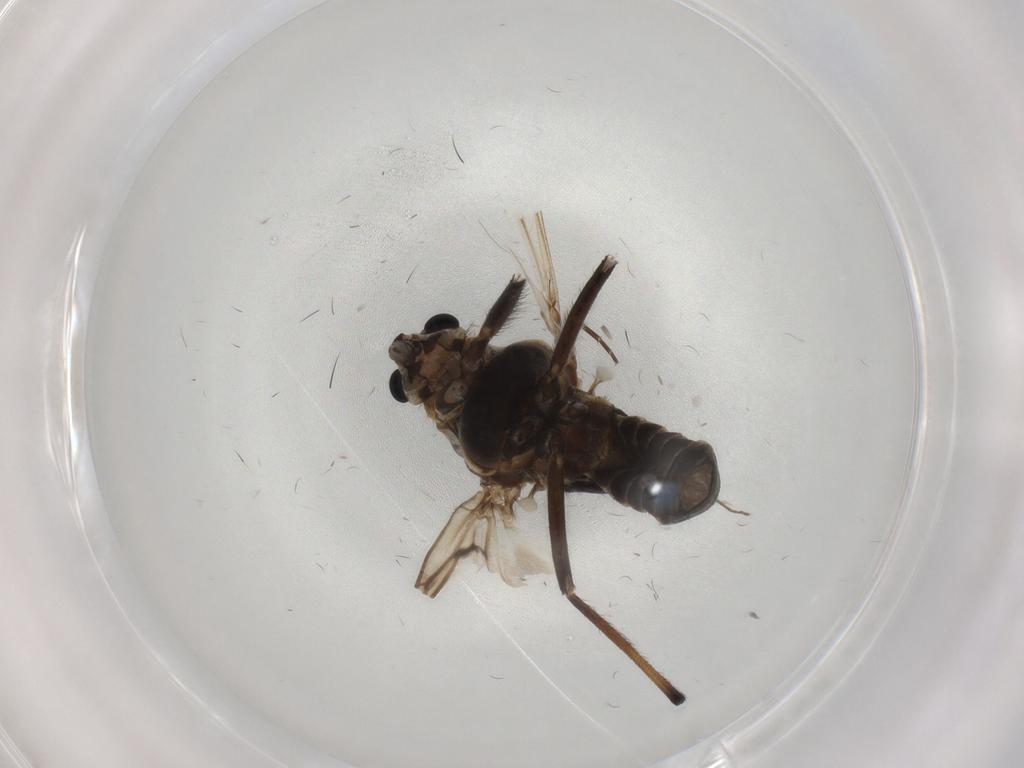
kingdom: Animalia
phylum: Arthropoda
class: Insecta
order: Diptera
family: Chironomidae
